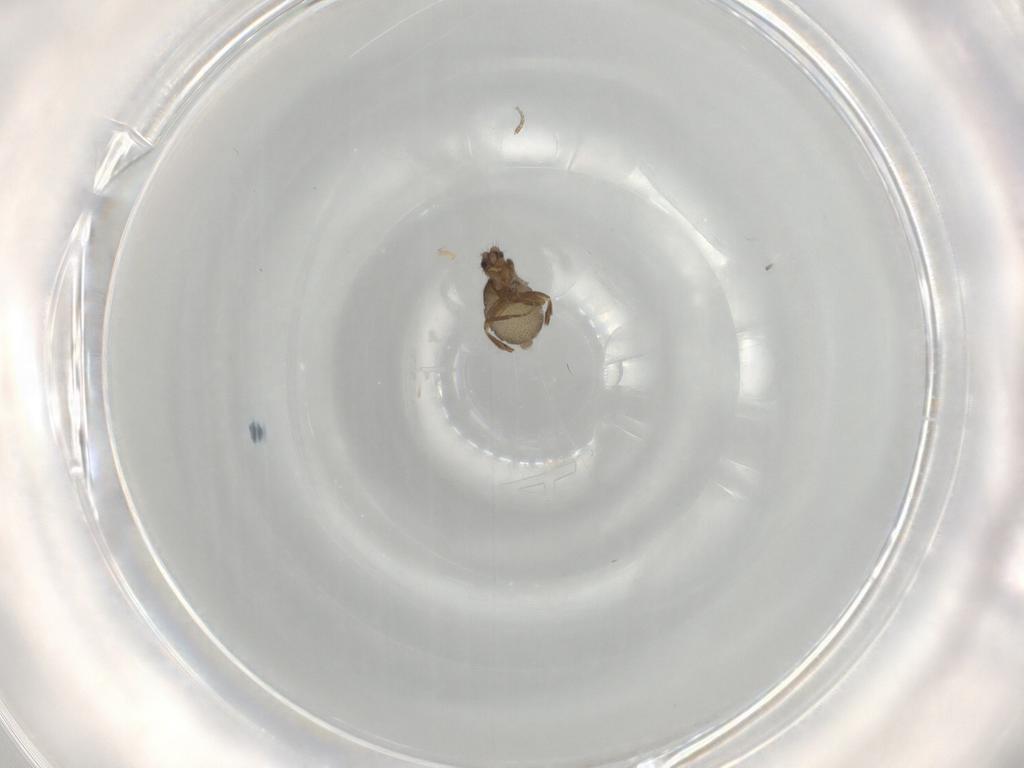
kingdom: Animalia
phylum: Arthropoda
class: Insecta
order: Diptera
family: Phoridae
